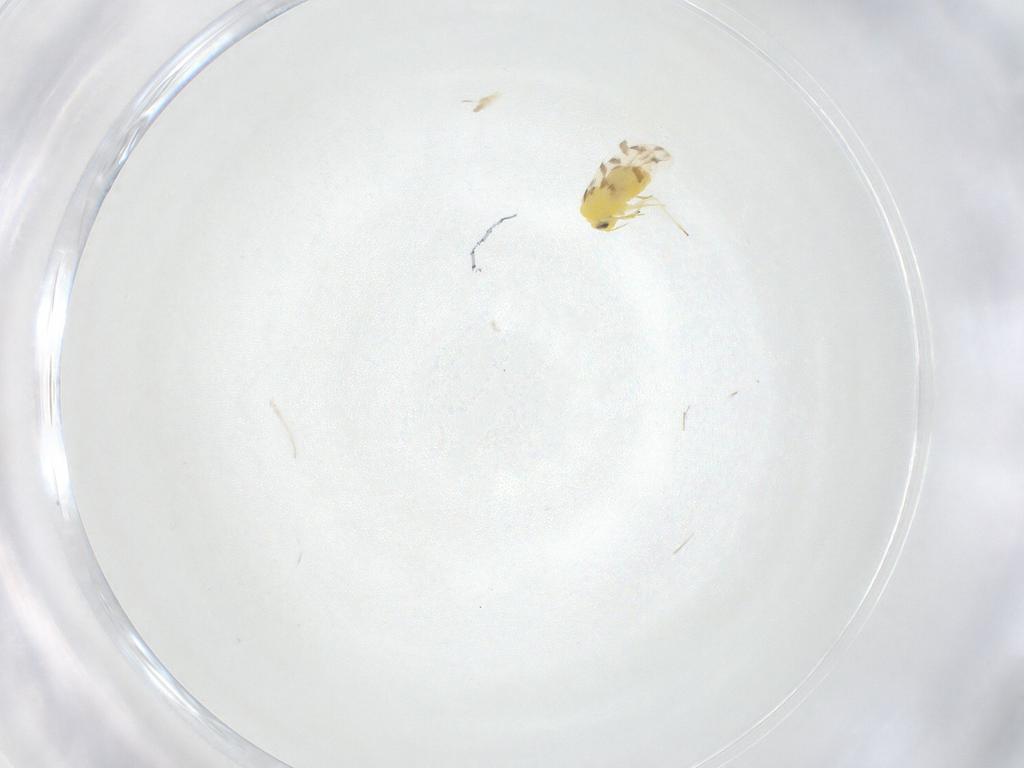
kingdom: Animalia
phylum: Arthropoda
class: Insecta
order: Hemiptera
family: Aleyrodidae
